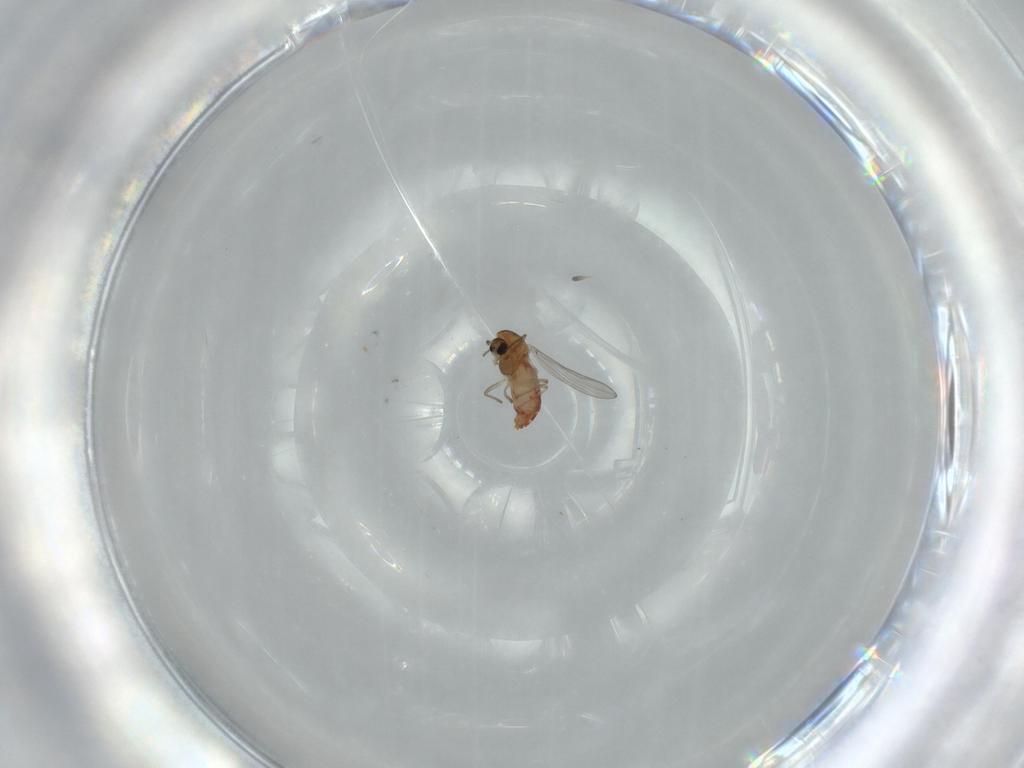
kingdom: Animalia
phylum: Arthropoda
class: Insecta
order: Diptera
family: Chironomidae
